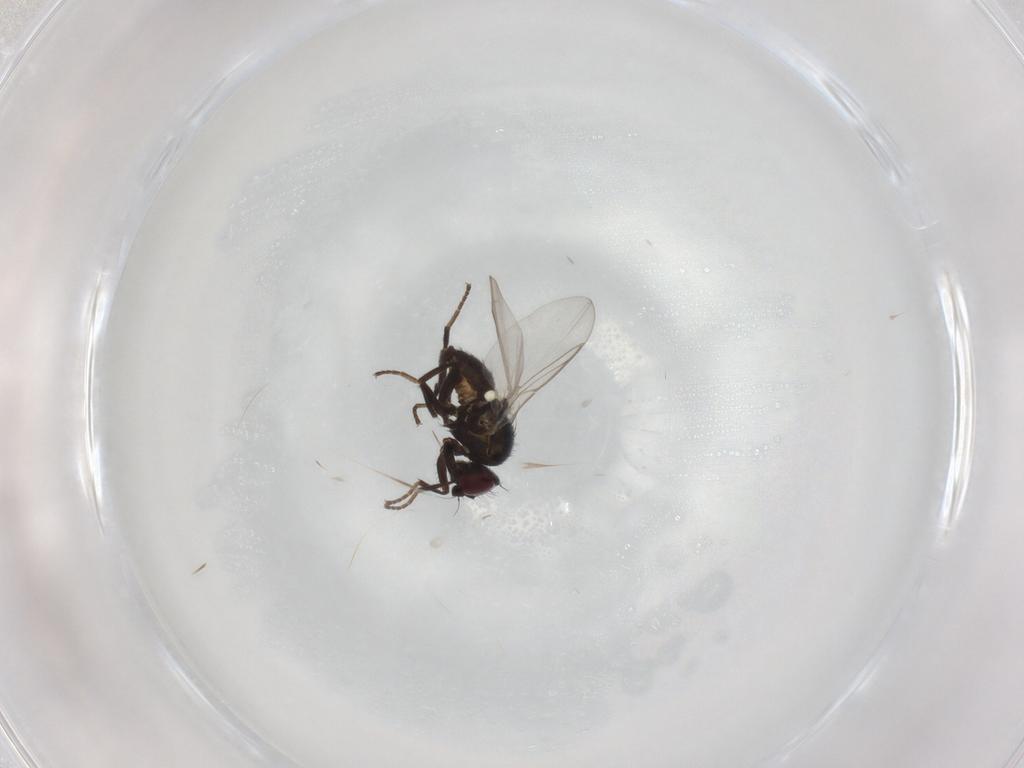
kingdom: Animalia
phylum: Arthropoda
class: Insecta
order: Diptera
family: Agromyzidae
